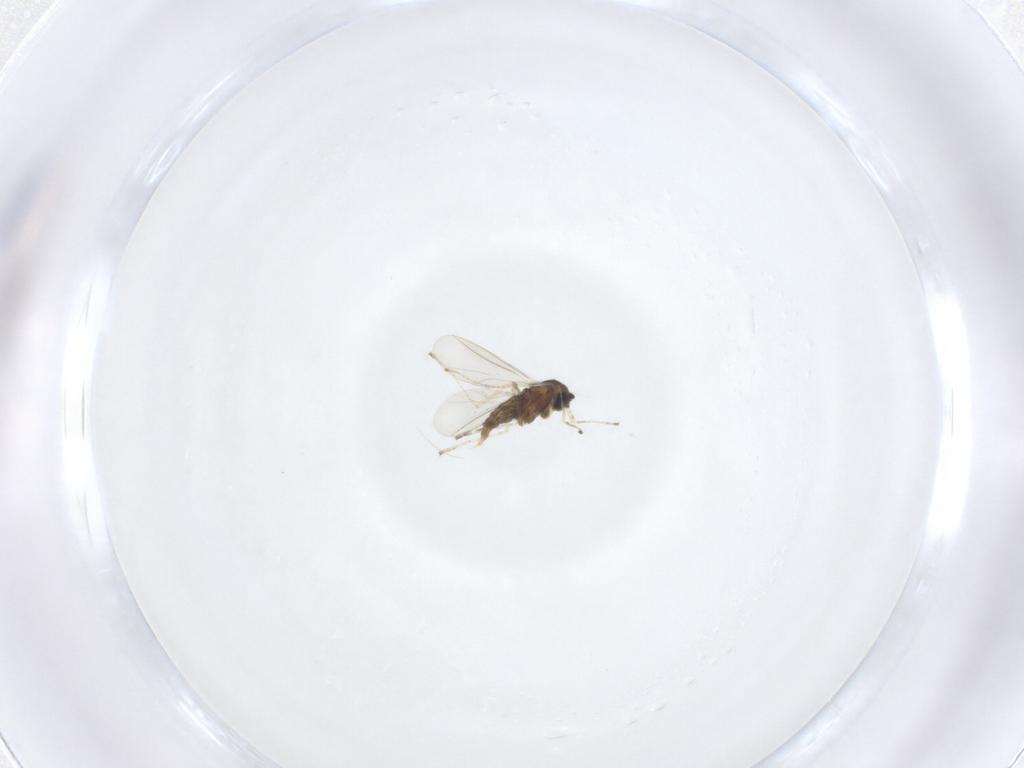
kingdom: Animalia
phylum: Arthropoda
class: Insecta
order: Diptera
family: Cecidomyiidae
